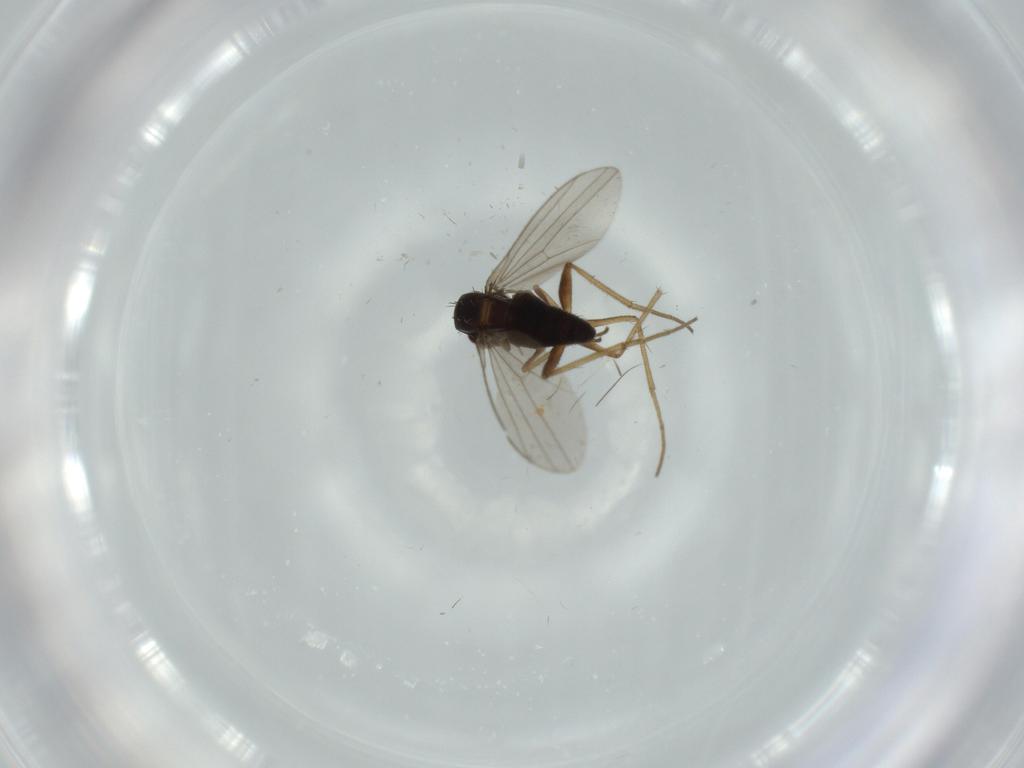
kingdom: Animalia
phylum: Arthropoda
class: Insecta
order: Diptera
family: Dolichopodidae
